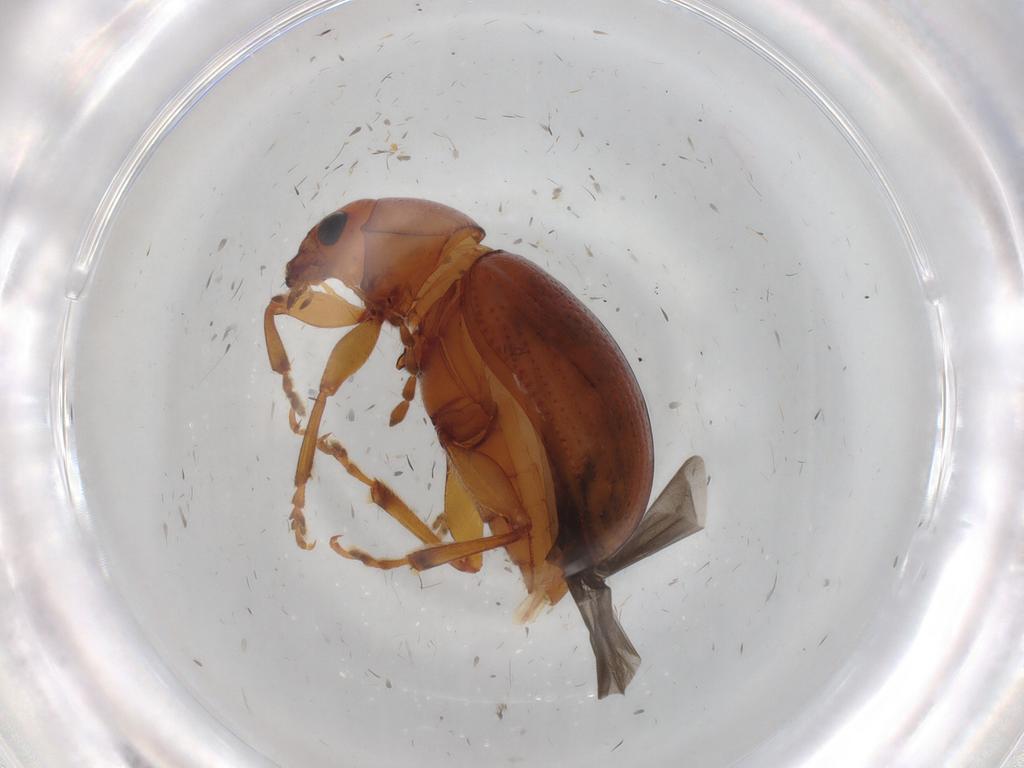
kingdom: Animalia
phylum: Arthropoda
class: Insecta
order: Coleoptera
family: Chrysomelidae
